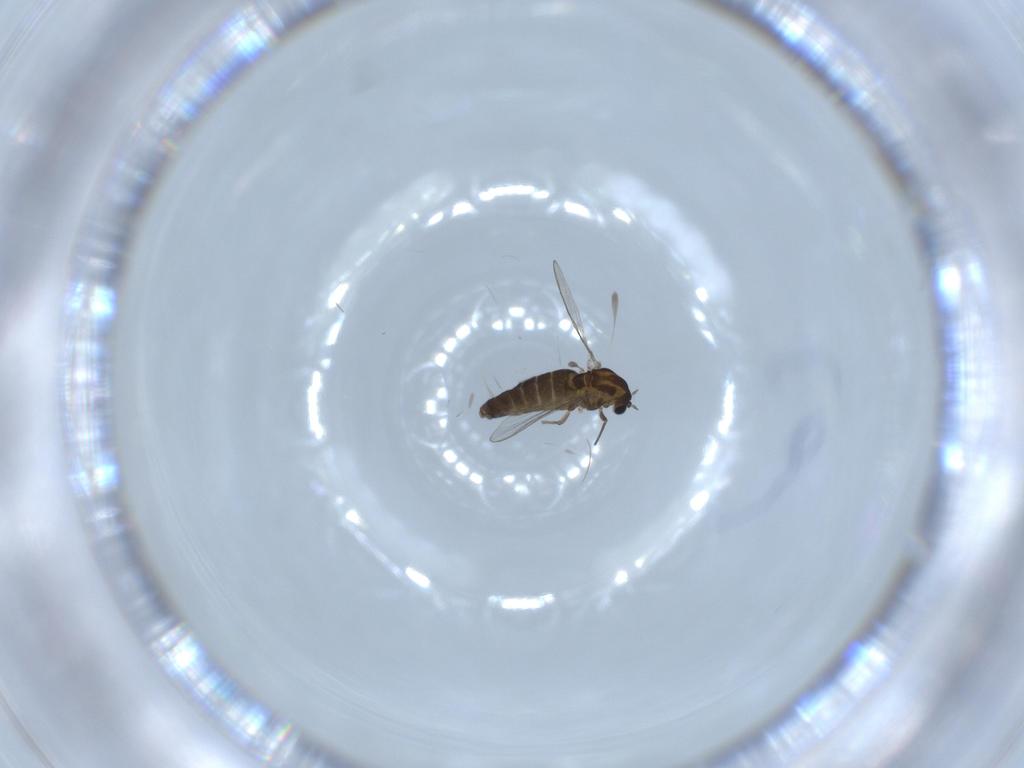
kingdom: Animalia
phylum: Arthropoda
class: Insecta
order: Diptera
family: Chironomidae
